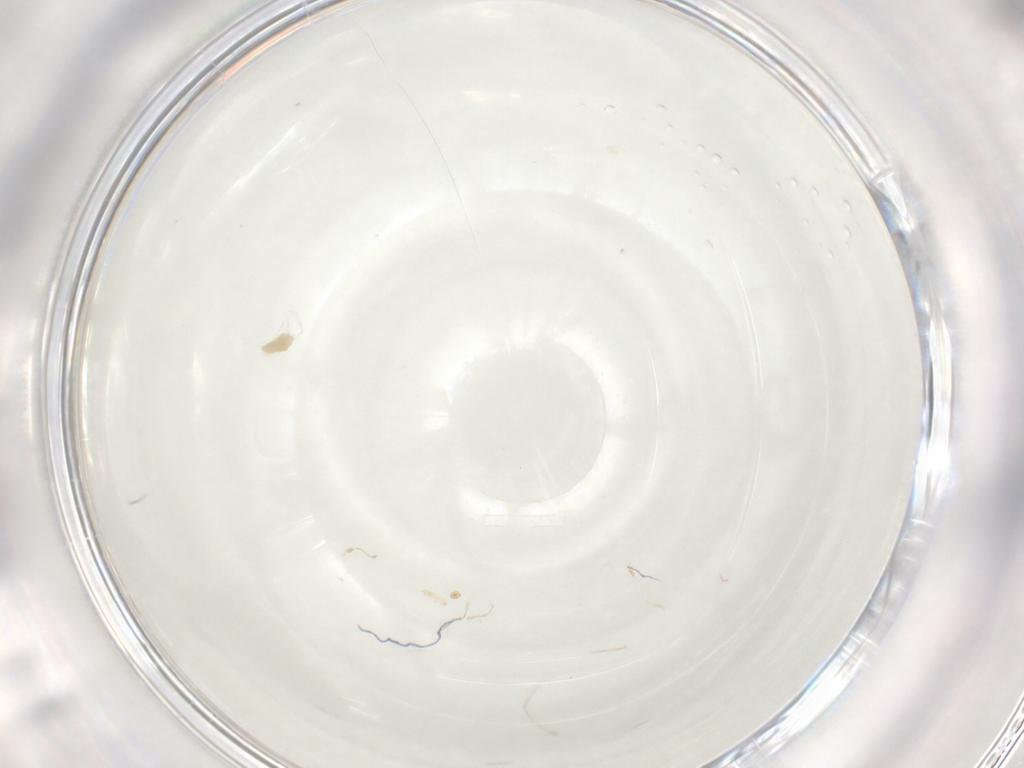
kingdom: Animalia
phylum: Arthropoda
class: Arachnida
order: Trombidiformes
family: Eupodidae
